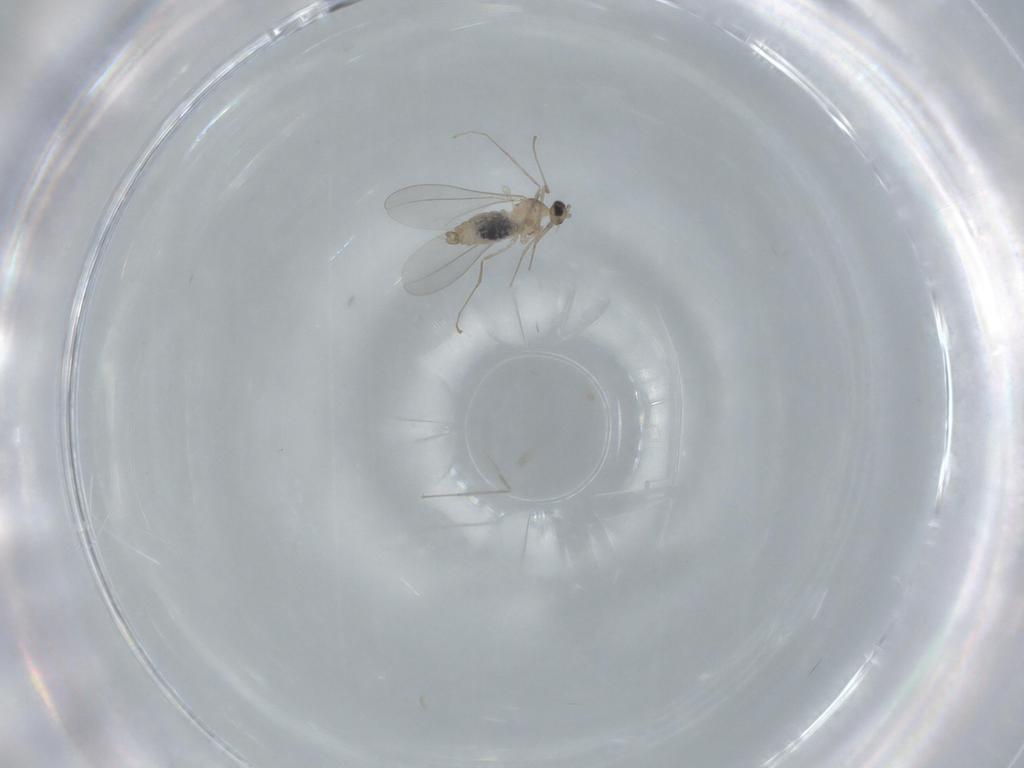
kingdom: Animalia
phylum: Arthropoda
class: Insecta
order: Diptera
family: Cecidomyiidae
